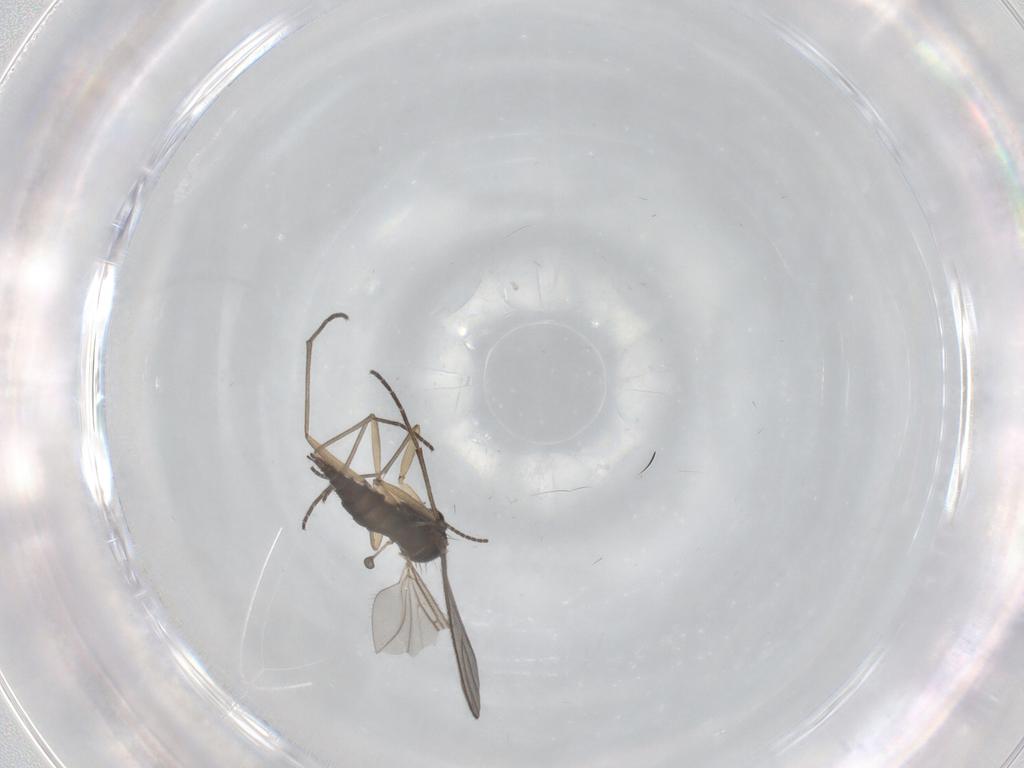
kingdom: Animalia
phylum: Arthropoda
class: Insecta
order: Diptera
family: Sciaridae
